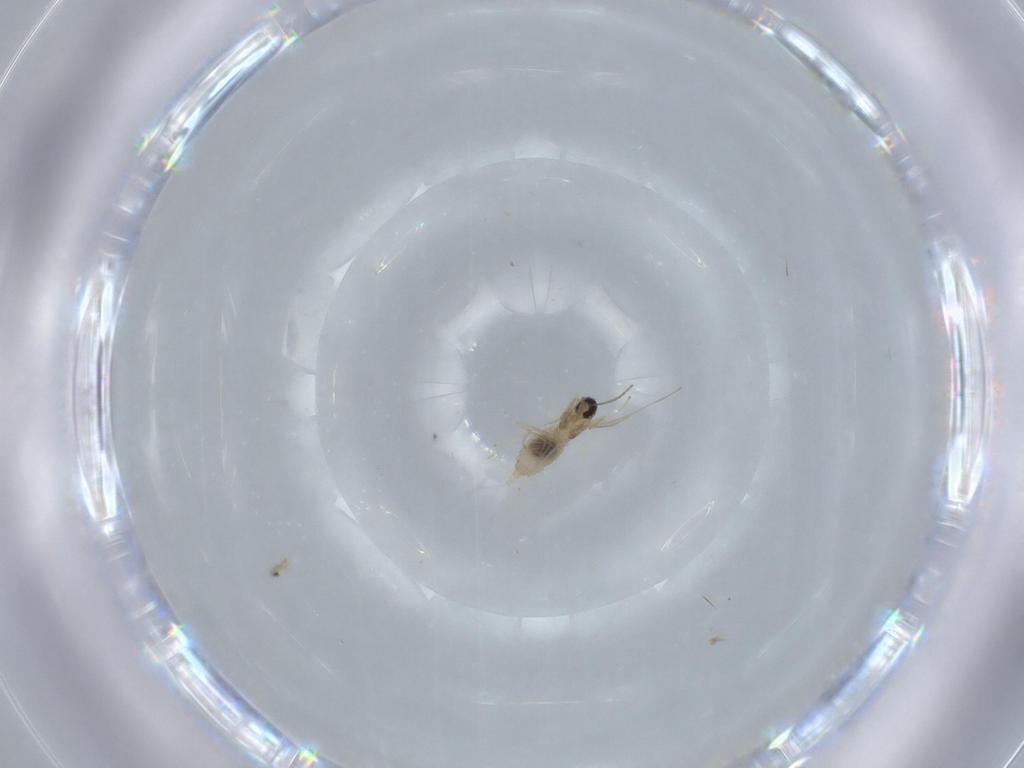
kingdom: Animalia
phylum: Arthropoda
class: Insecta
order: Diptera
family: Cecidomyiidae
